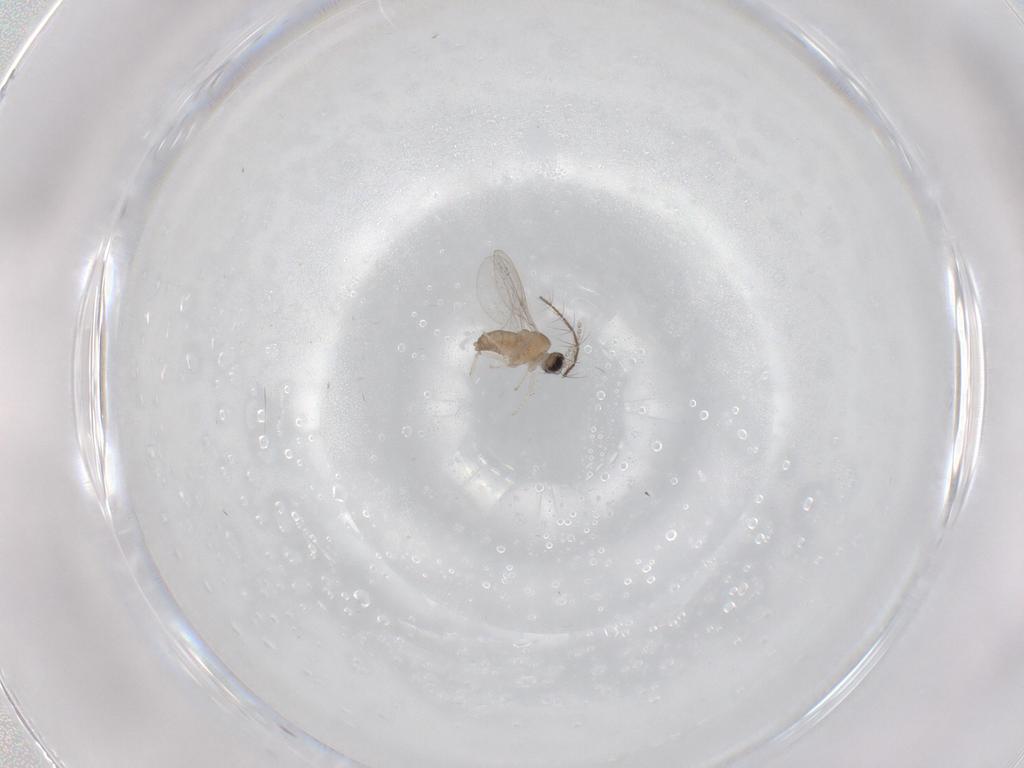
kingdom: Animalia
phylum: Arthropoda
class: Insecta
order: Diptera
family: Cecidomyiidae
